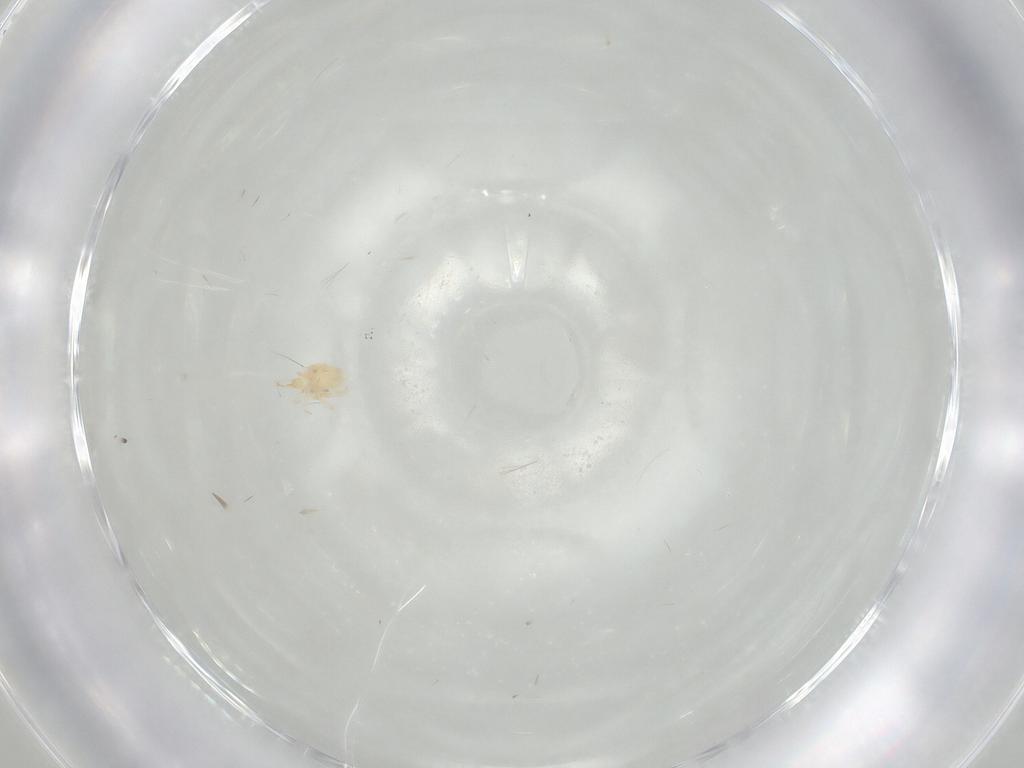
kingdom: Animalia
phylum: Arthropoda
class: Arachnida
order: Trombidiformes
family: Cunaxidae
